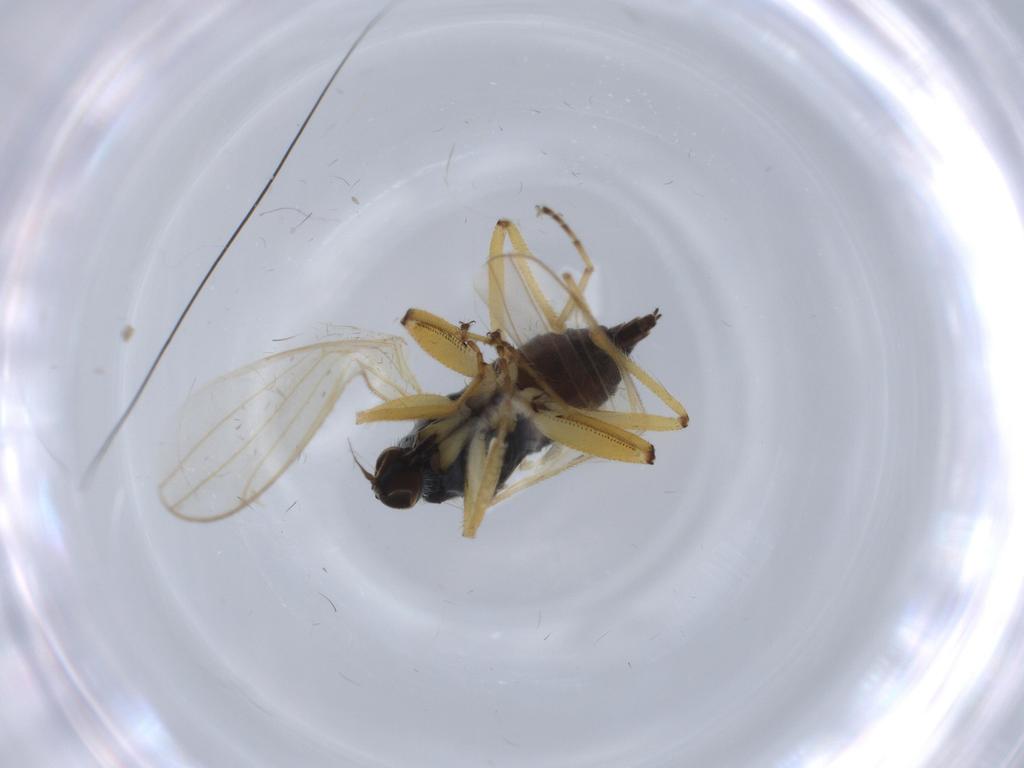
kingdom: Animalia
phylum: Arthropoda
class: Insecta
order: Diptera
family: Hybotidae
